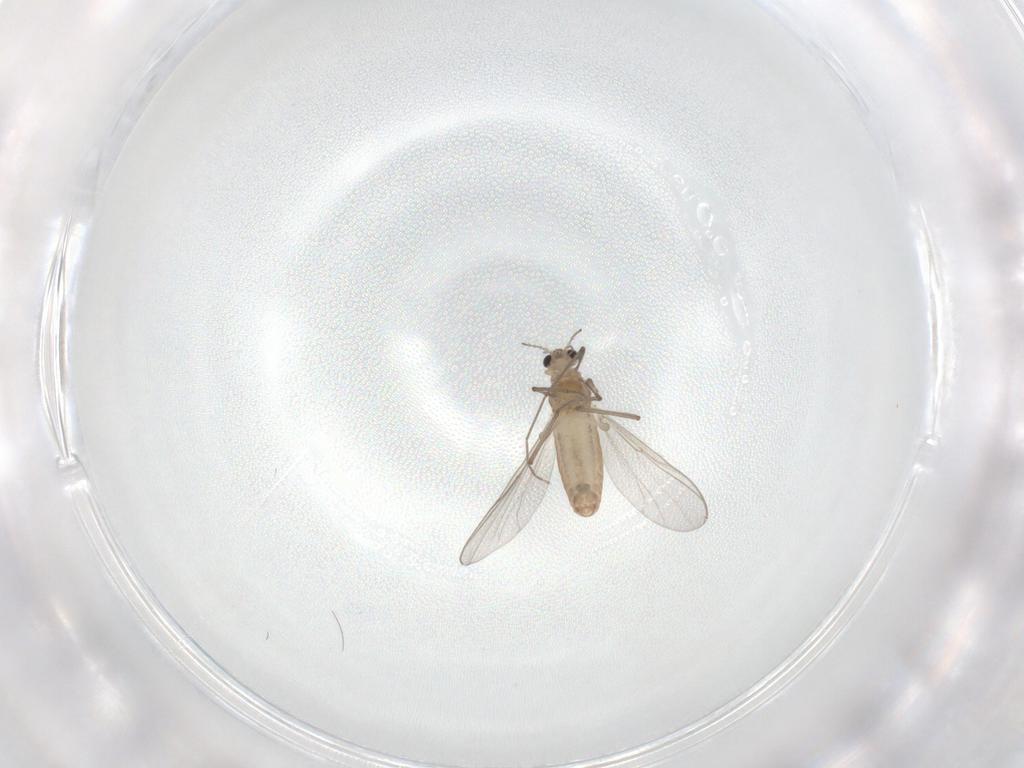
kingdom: Animalia
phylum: Arthropoda
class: Insecta
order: Diptera
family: Chironomidae
